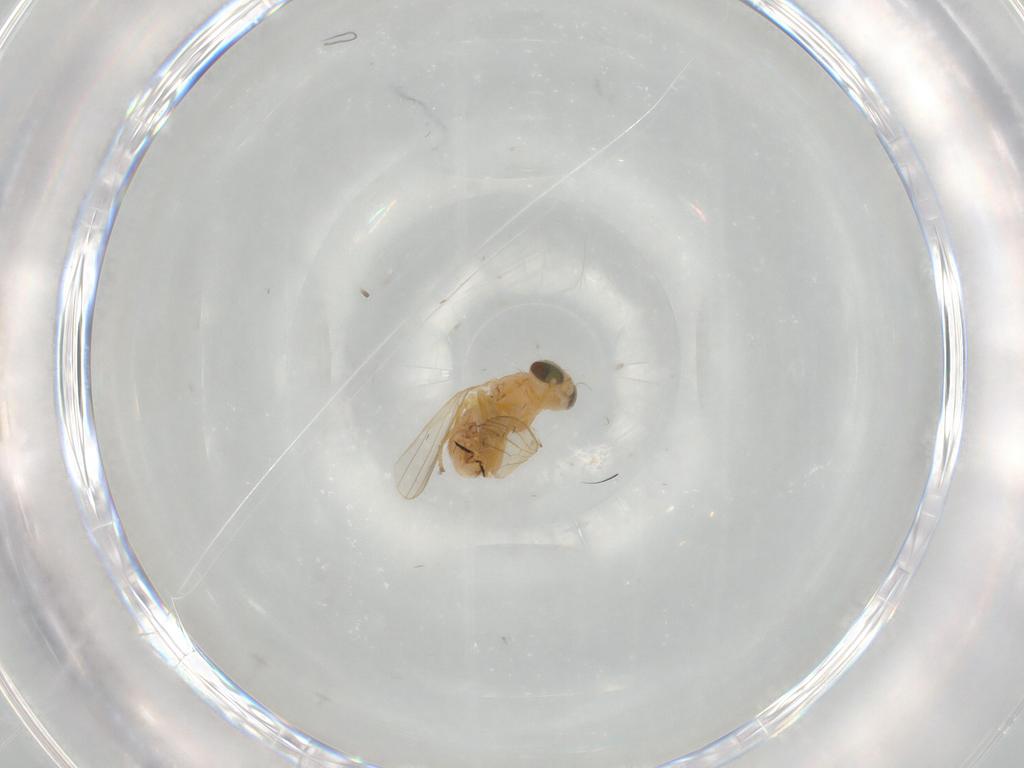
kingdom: Animalia
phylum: Arthropoda
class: Insecta
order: Diptera
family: Chyromyidae
